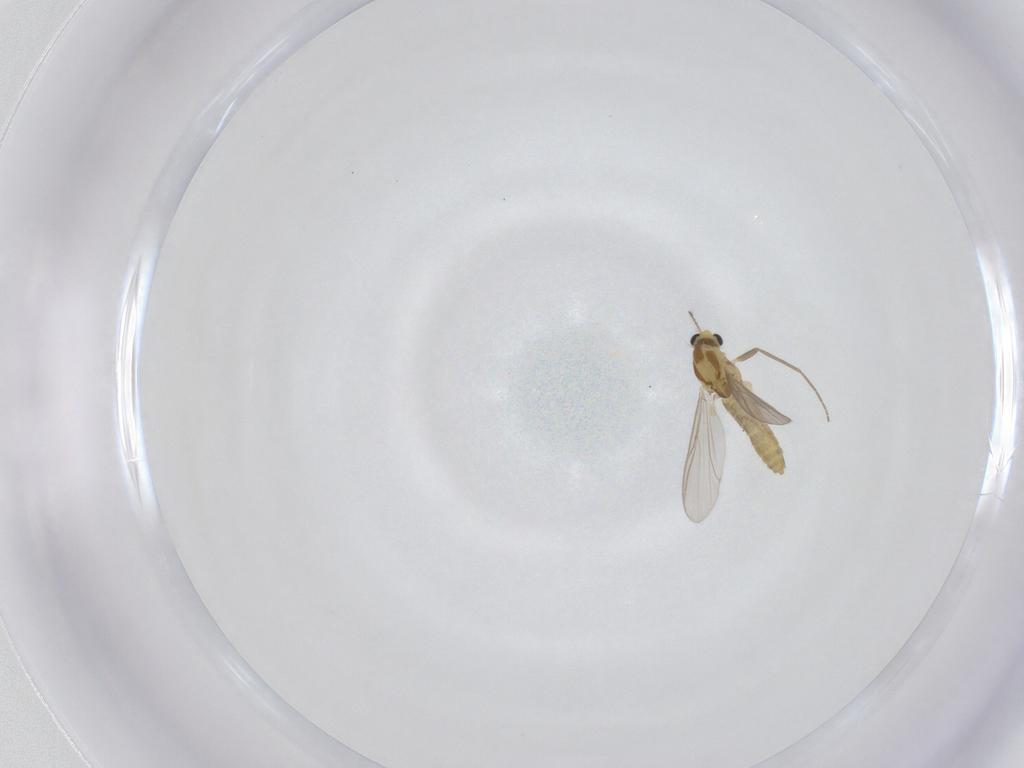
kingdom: Animalia
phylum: Arthropoda
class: Insecta
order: Diptera
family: Chironomidae
